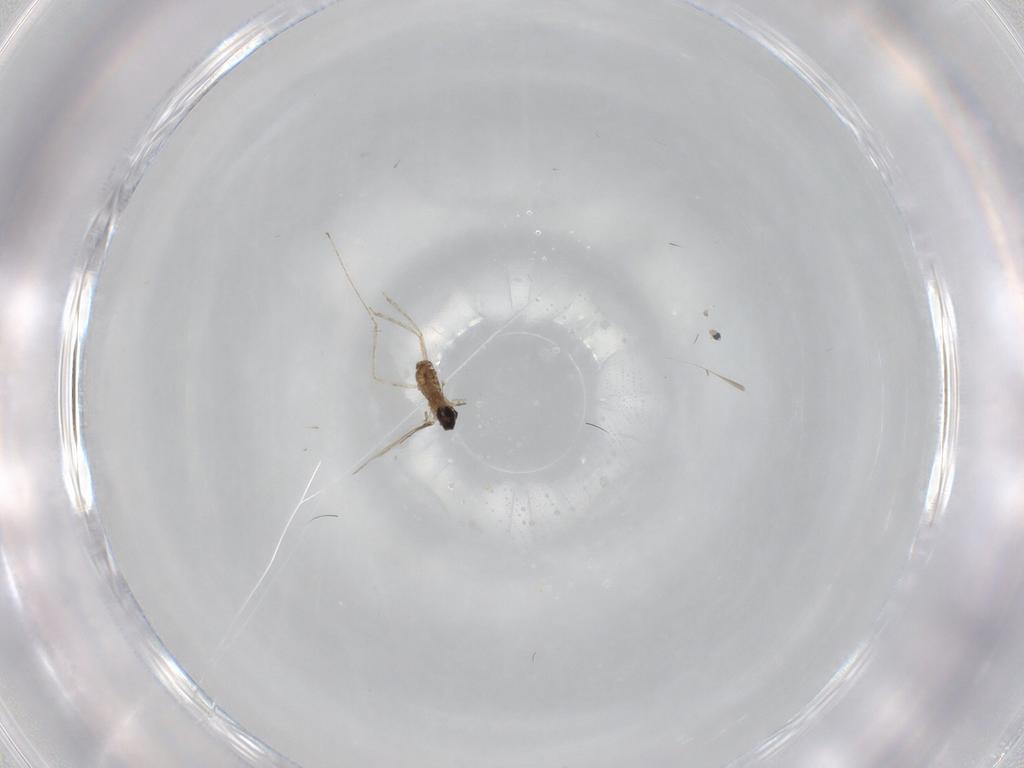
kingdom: Animalia
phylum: Arthropoda
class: Insecta
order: Diptera
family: Cecidomyiidae
